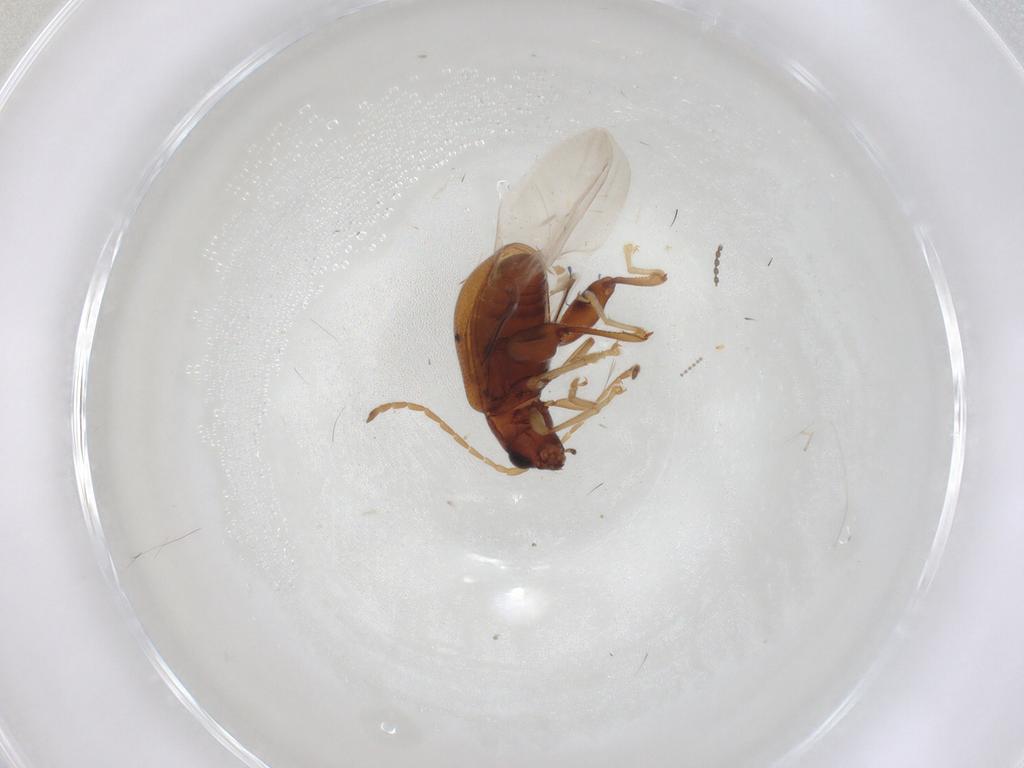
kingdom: Animalia
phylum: Arthropoda
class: Insecta
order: Coleoptera
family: Chrysomelidae
